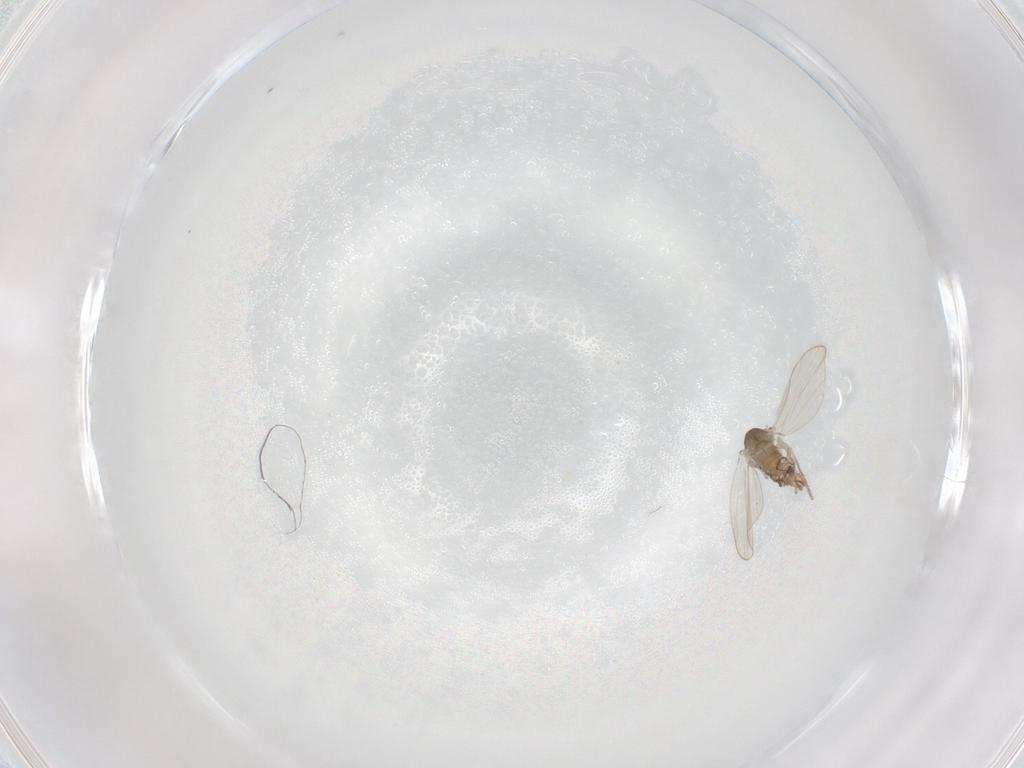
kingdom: Animalia
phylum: Arthropoda
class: Insecta
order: Diptera
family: Psychodidae
